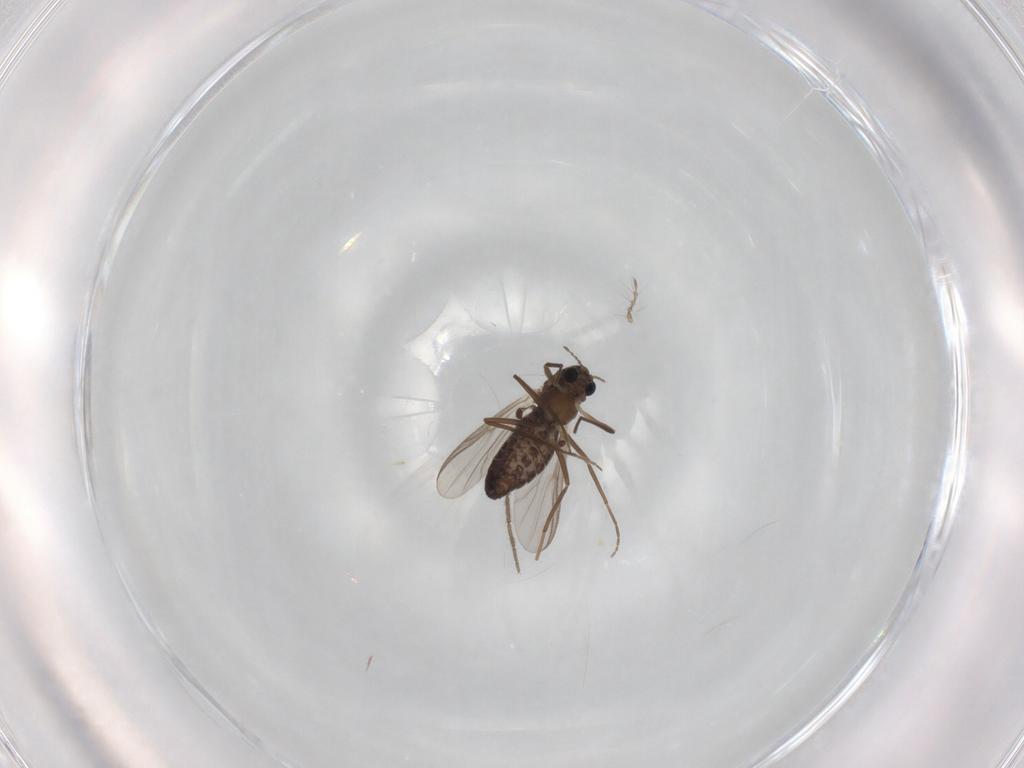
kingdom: Animalia
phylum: Arthropoda
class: Insecta
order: Diptera
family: Chironomidae
